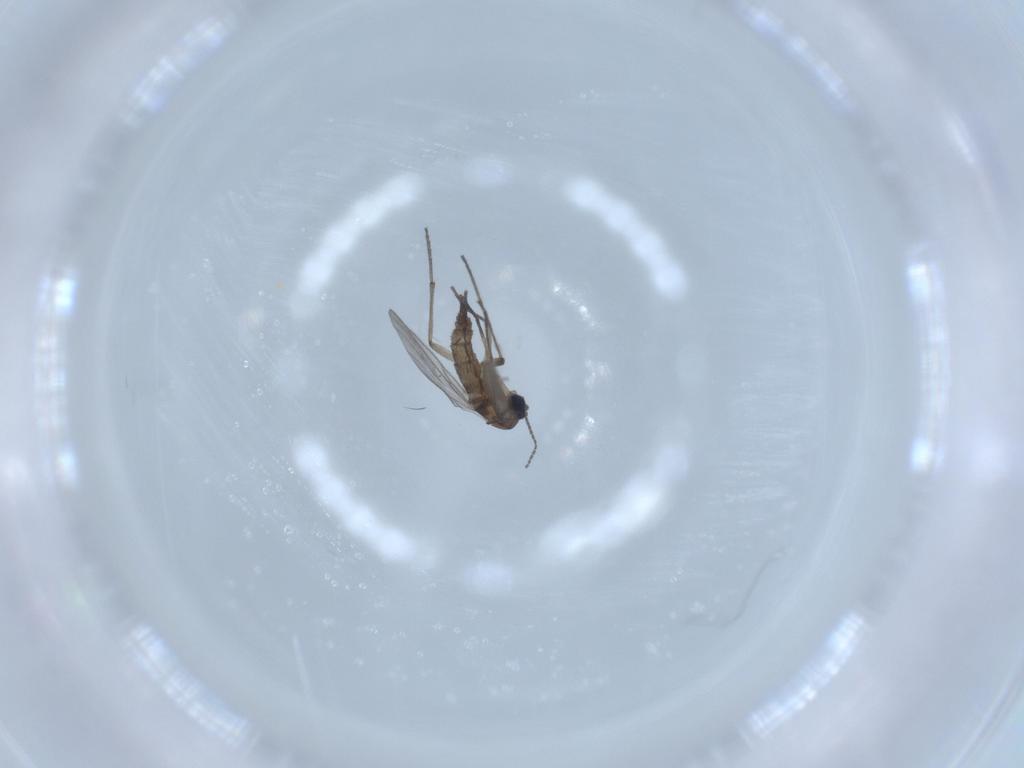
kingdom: Animalia
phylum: Arthropoda
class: Insecta
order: Diptera
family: Sciaridae
